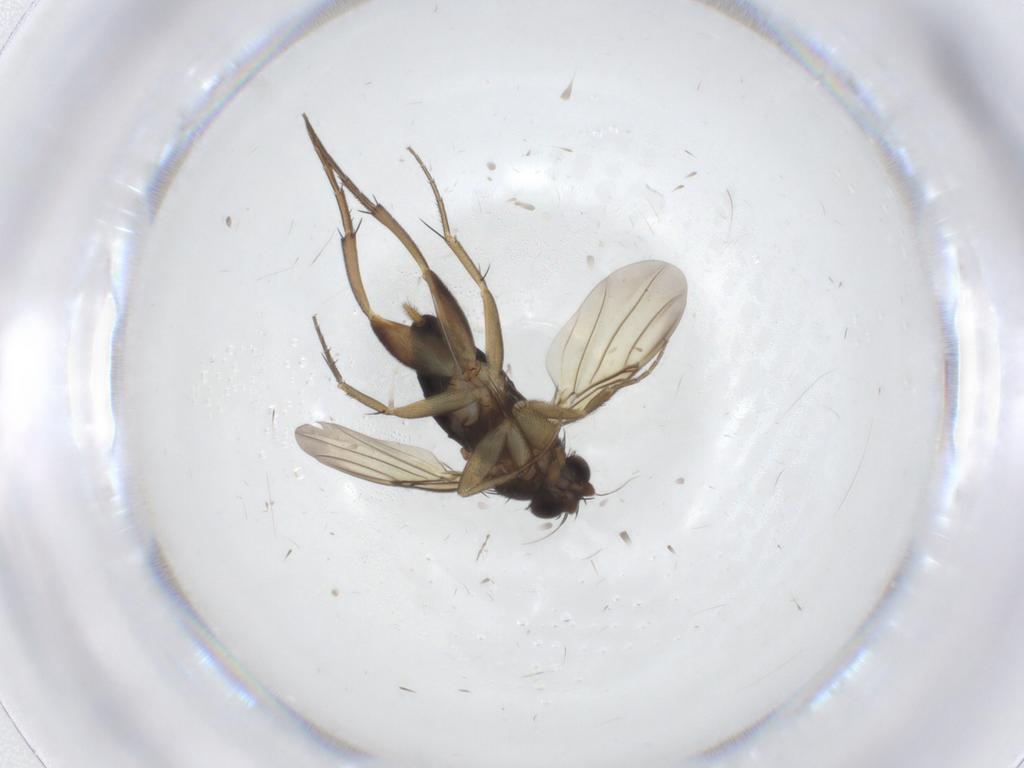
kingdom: Animalia
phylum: Arthropoda
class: Insecta
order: Diptera
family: Phoridae
